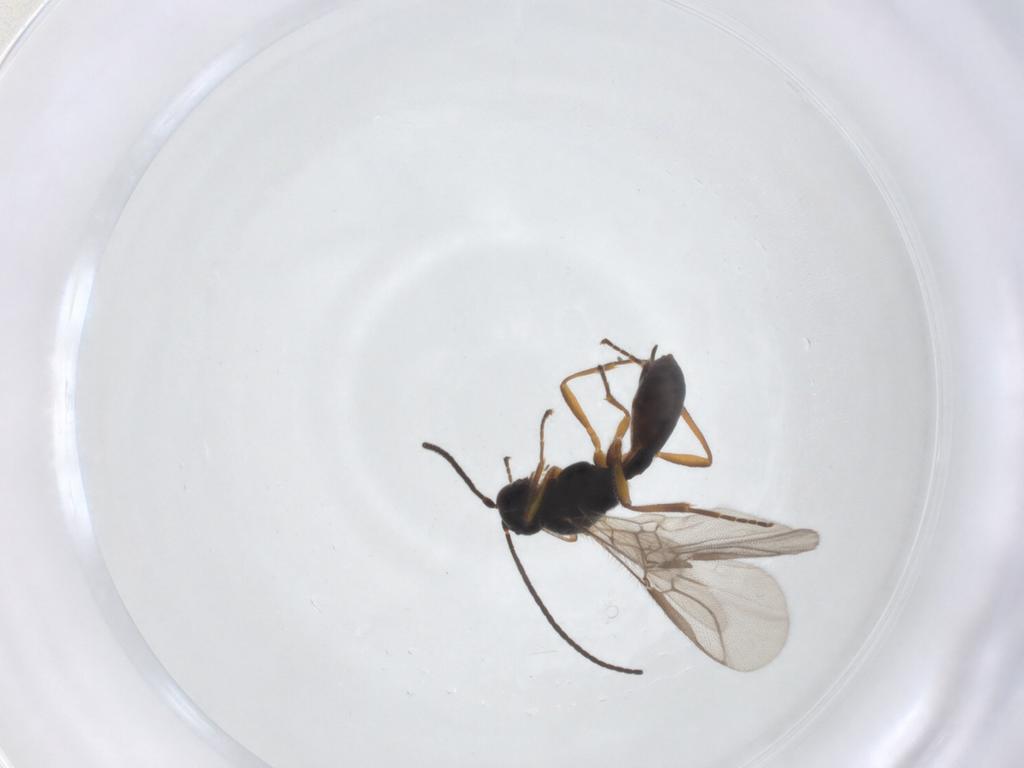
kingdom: Animalia
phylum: Arthropoda
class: Insecta
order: Hymenoptera
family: Braconidae
